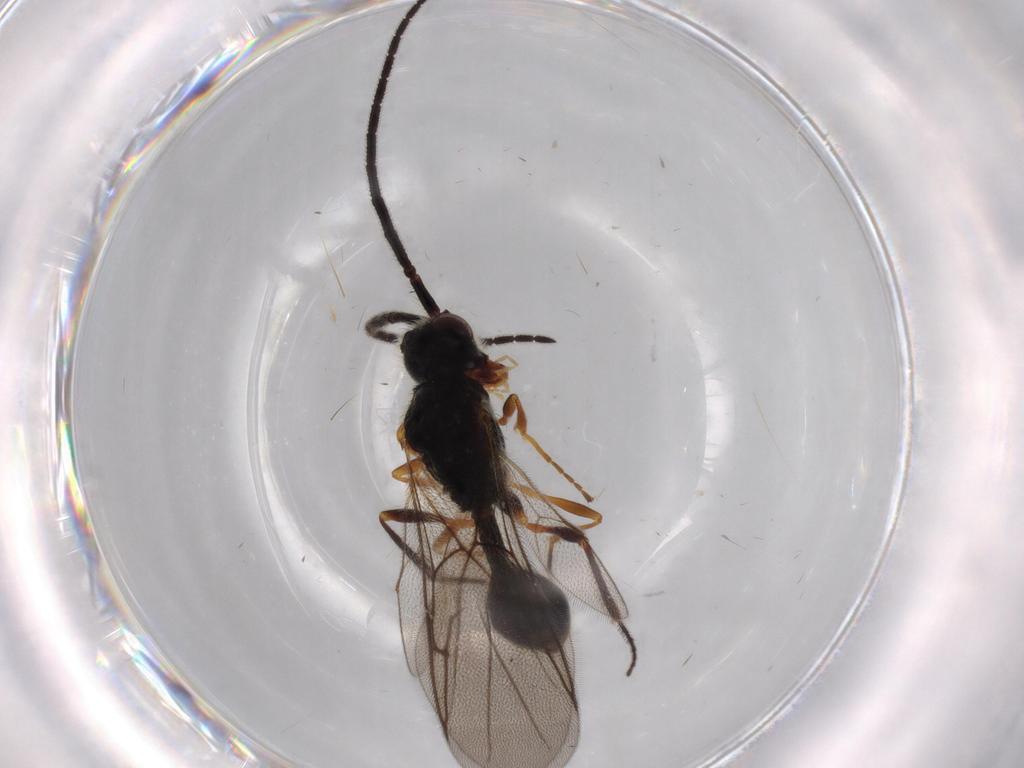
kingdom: Animalia
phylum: Arthropoda
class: Insecta
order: Hymenoptera
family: Diapriidae
